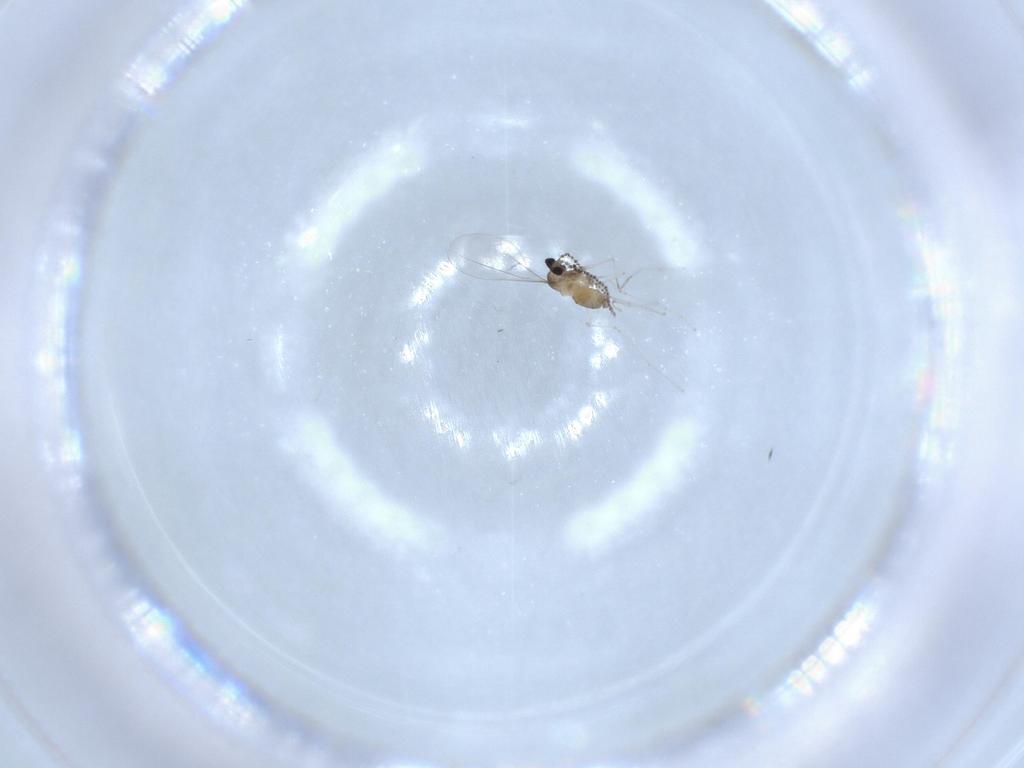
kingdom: Animalia
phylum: Arthropoda
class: Insecta
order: Diptera
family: Cecidomyiidae
